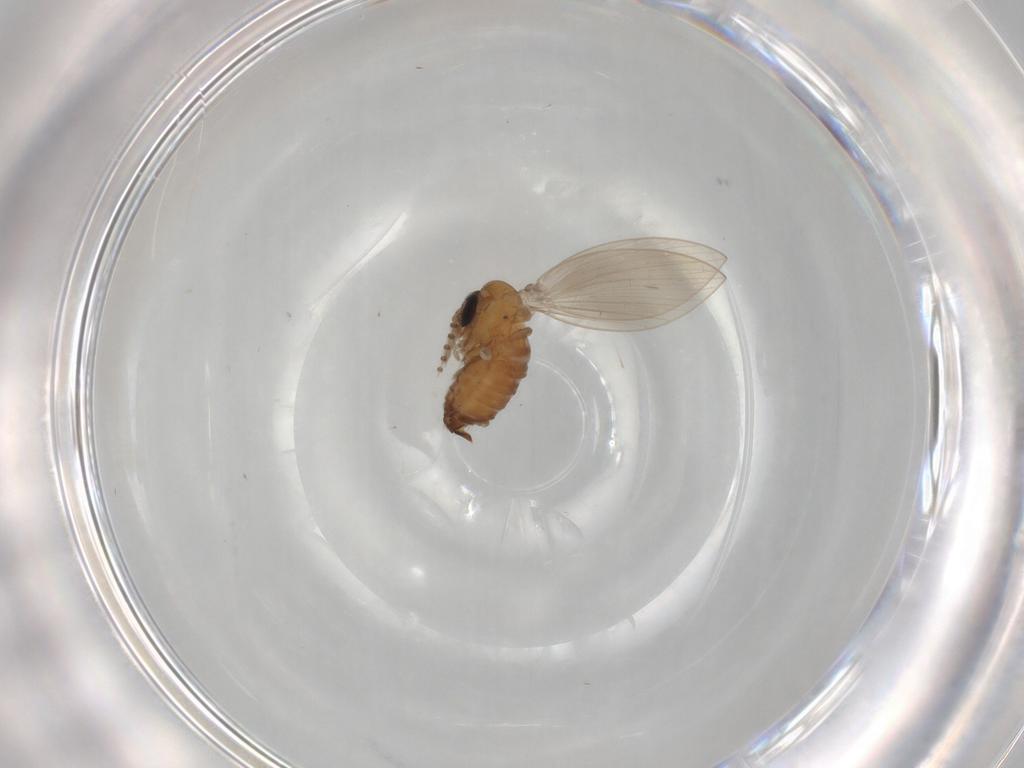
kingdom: Animalia
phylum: Arthropoda
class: Insecta
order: Diptera
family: Psychodidae
